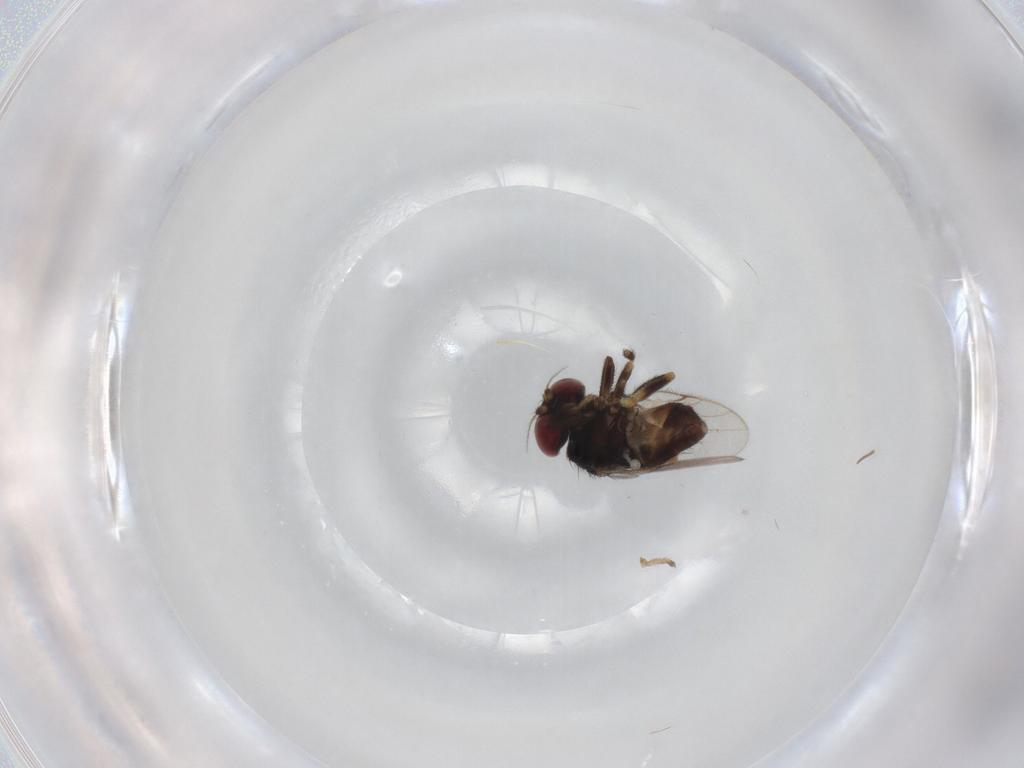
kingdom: Animalia
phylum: Arthropoda
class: Insecta
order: Diptera
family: Chloropidae
